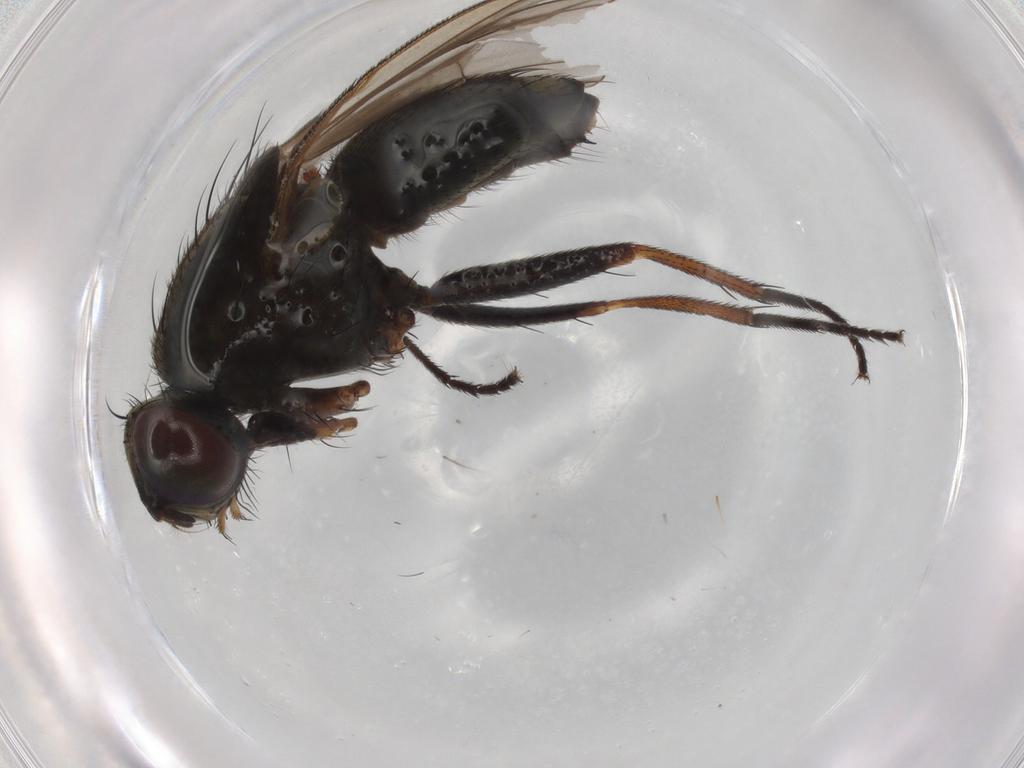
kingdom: Animalia
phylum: Arthropoda
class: Insecta
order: Diptera
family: Muscidae
